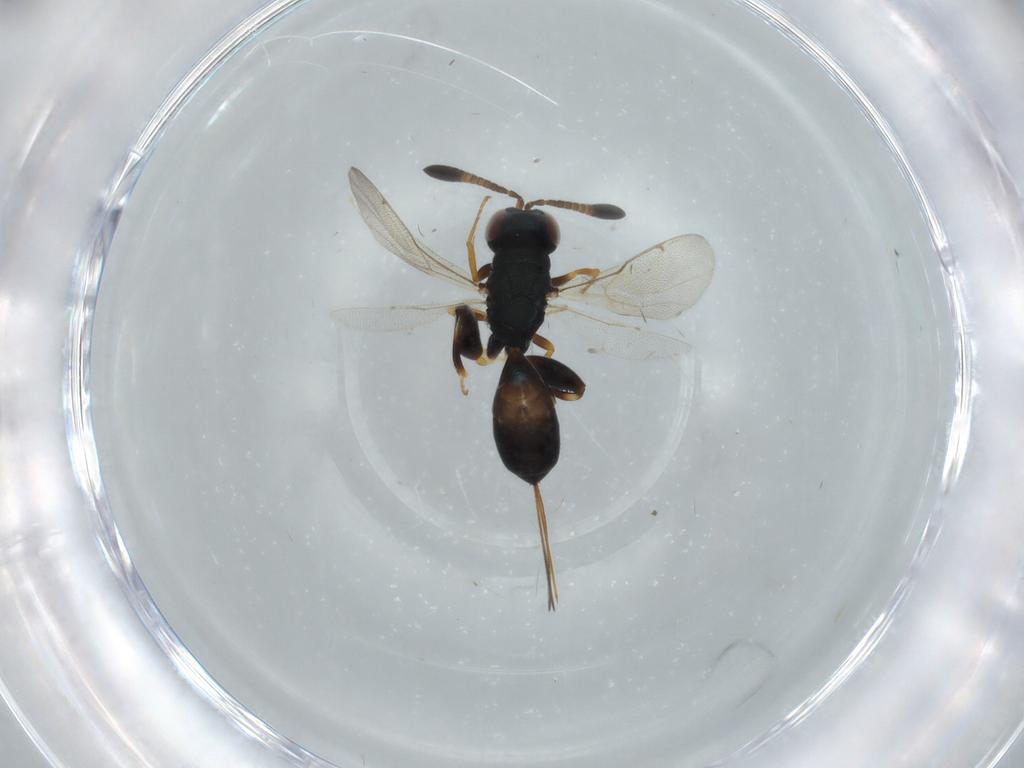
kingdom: Animalia
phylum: Arthropoda
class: Insecta
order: Hymenoptera
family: Torymidae
